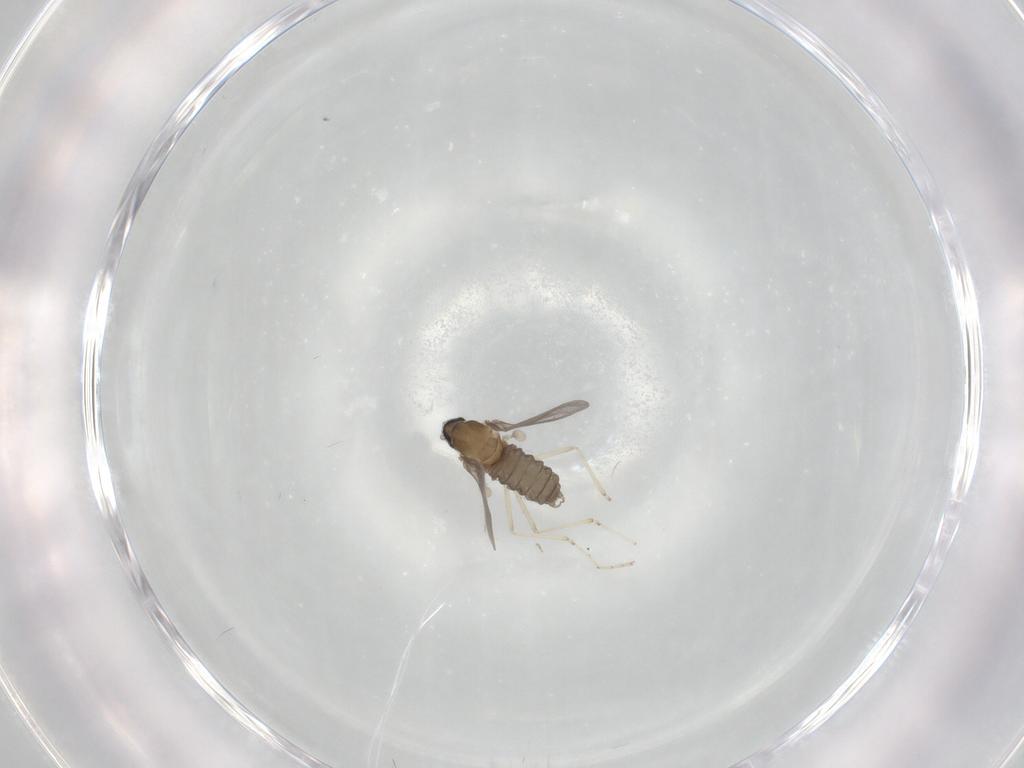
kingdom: Animalia
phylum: Arthropoda
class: Insecta
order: Diptera
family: Cecidomyiidae
